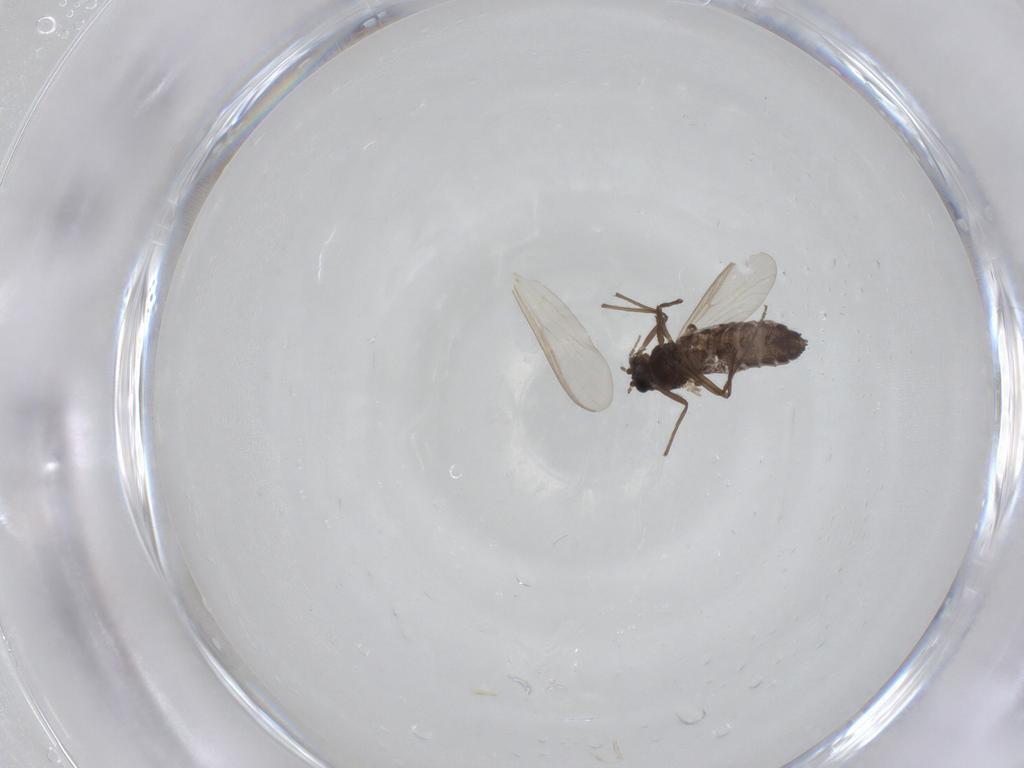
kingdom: Animalia
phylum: Arthropoda
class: Insecta
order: Diptera
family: Chironomidae
